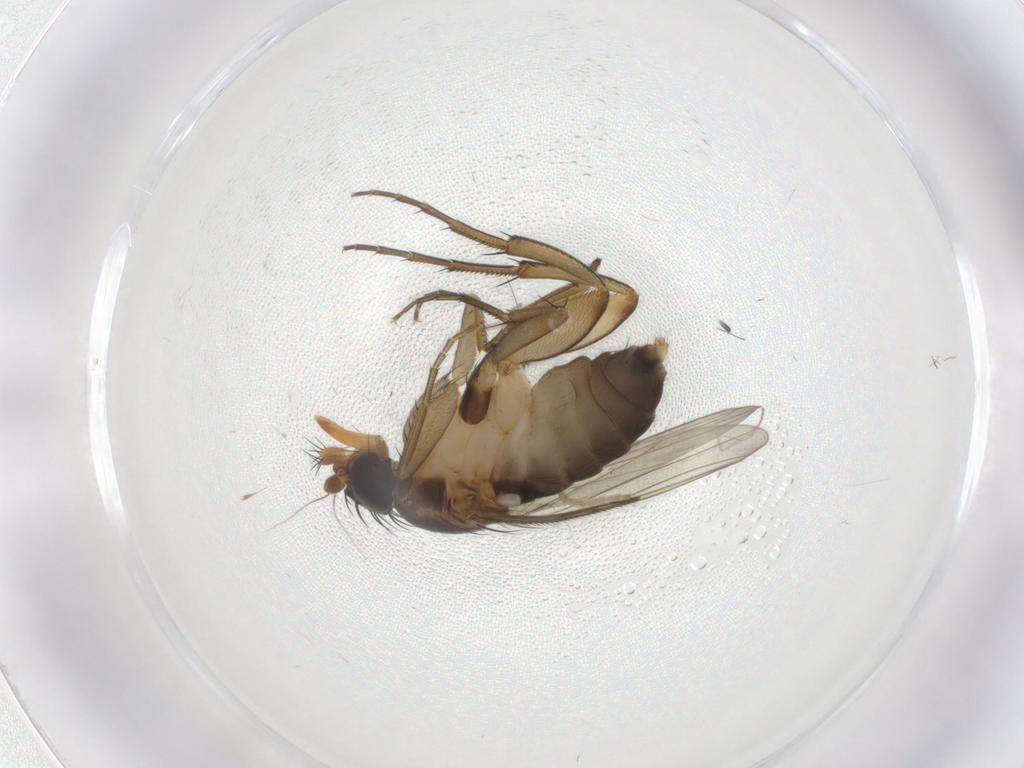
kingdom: Animalia
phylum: Arthropoda
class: Insecta
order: Diptera
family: Phoridae
